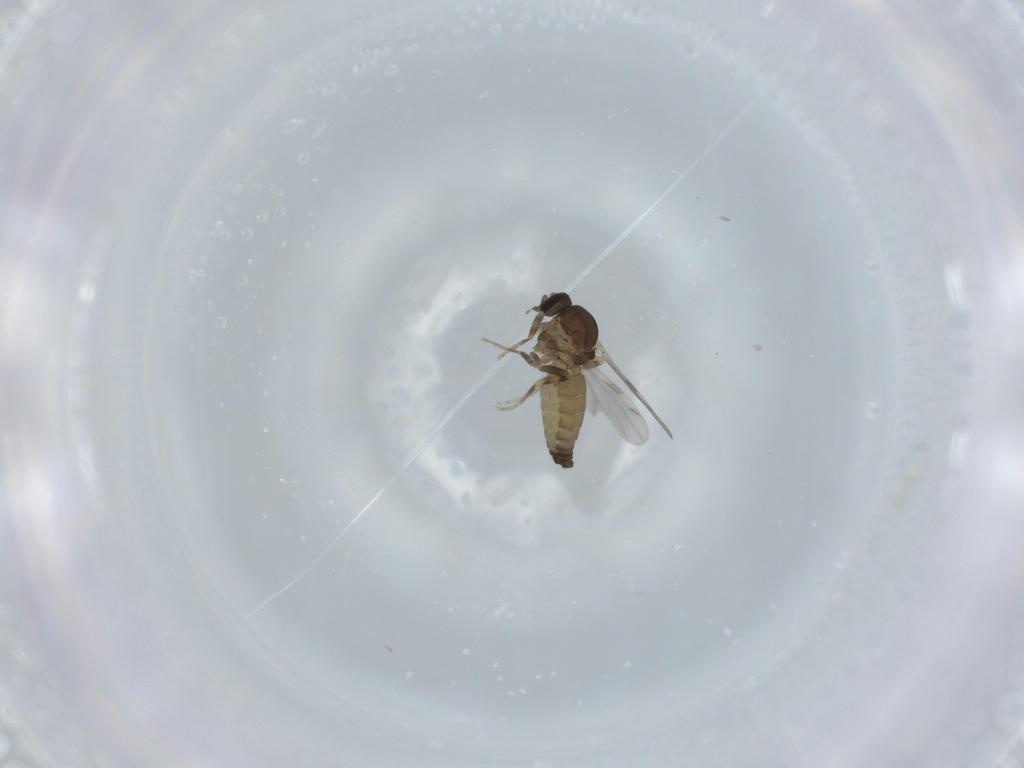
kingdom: Animalia
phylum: Arthropoda
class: Insecta
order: Diptera
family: Ceratopogonidae
